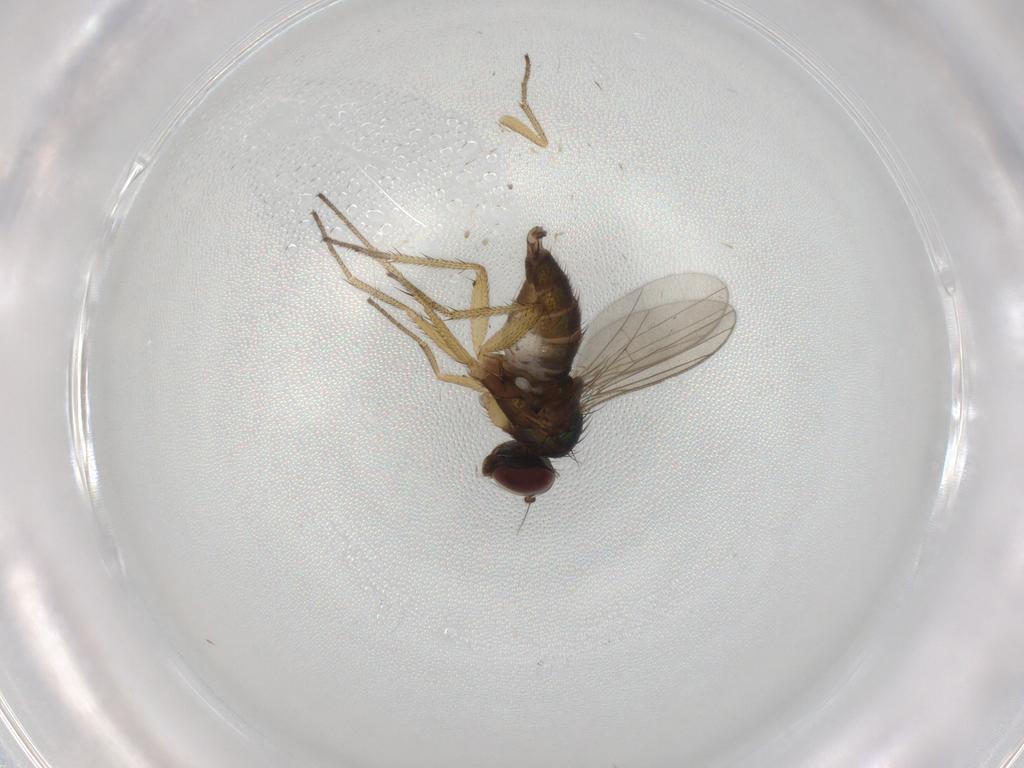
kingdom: Animalia
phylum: Arthropoda
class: Insecta
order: Diptera
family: Dolichopodidae
